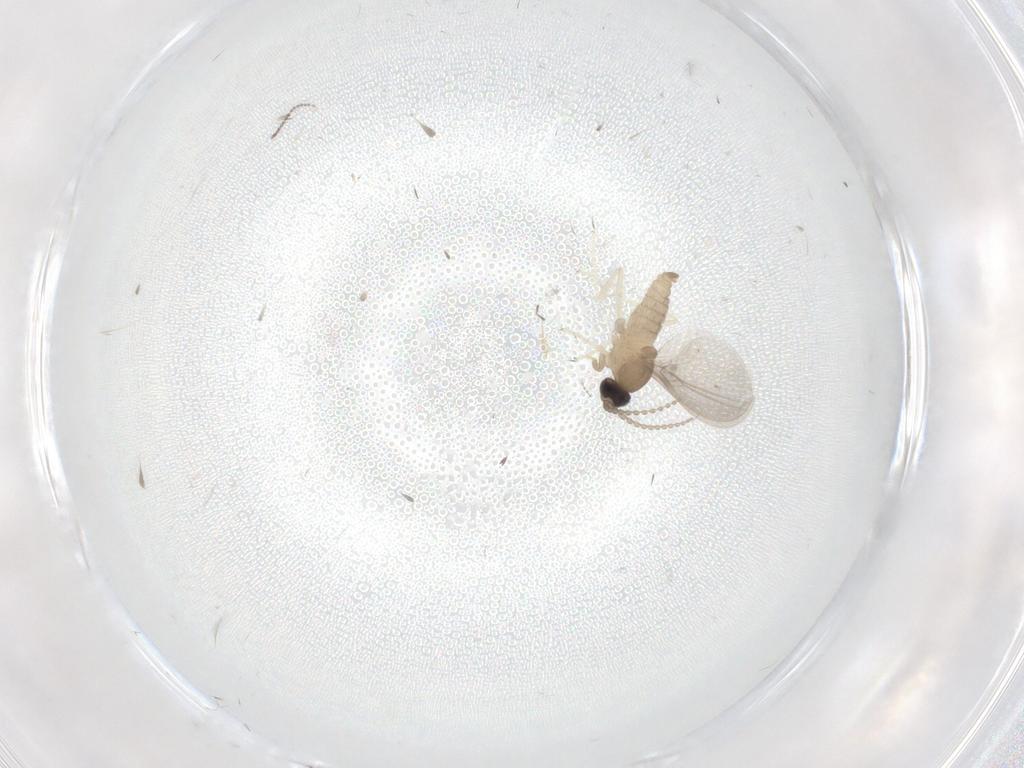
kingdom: Animalia
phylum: Arthropoda
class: Insecta
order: Diptera
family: Cecidomyiidae
